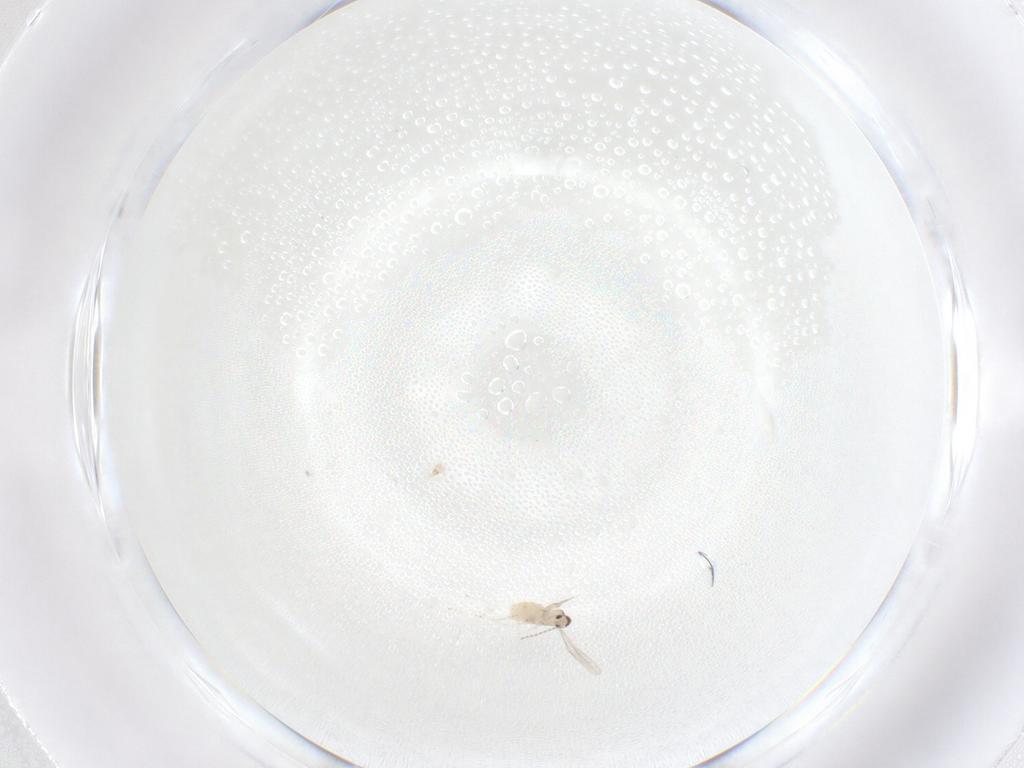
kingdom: Animalia
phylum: Arthropoda
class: Insecta
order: Diptera
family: Cecidomyiidae
